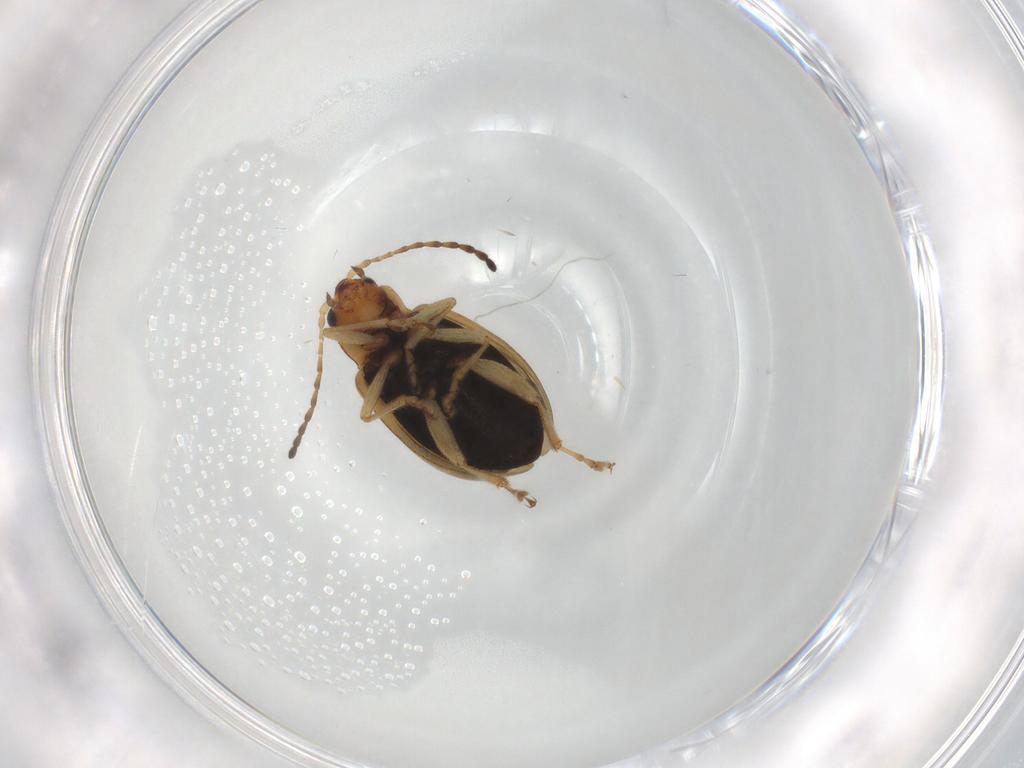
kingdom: Animalia
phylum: Arthropoda
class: Insecta
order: Coleoptera
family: Chrysomelidae
